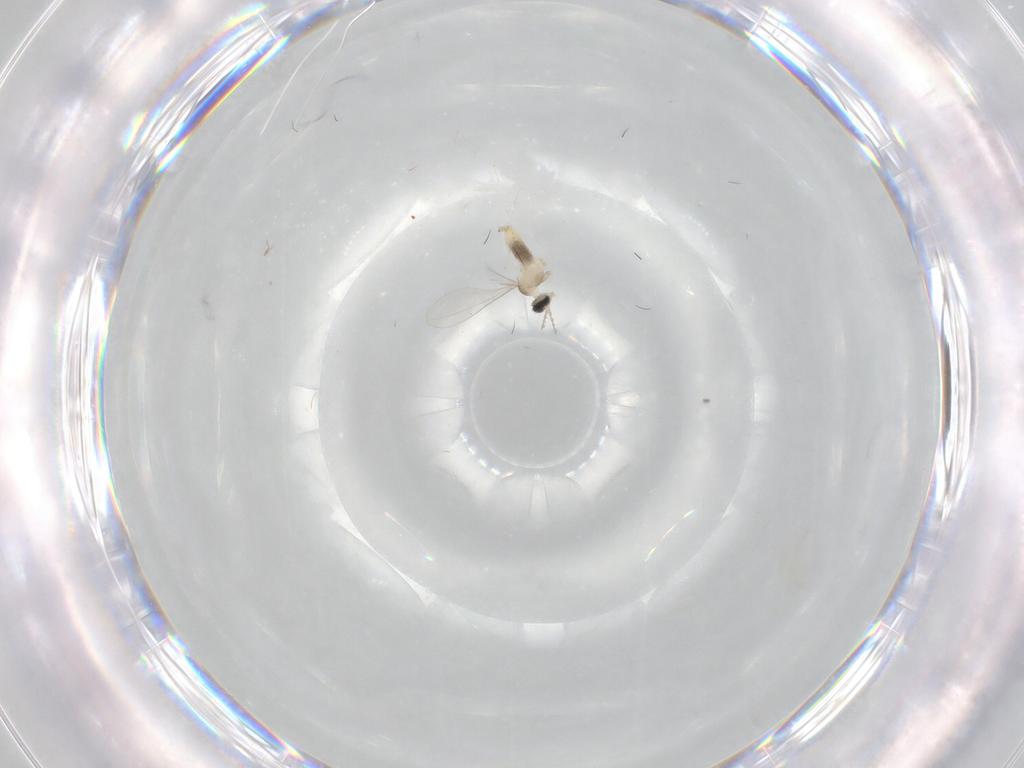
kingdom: Animalia
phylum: Arthropoda
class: Insecta
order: Diptera
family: Cecidomyiidae
